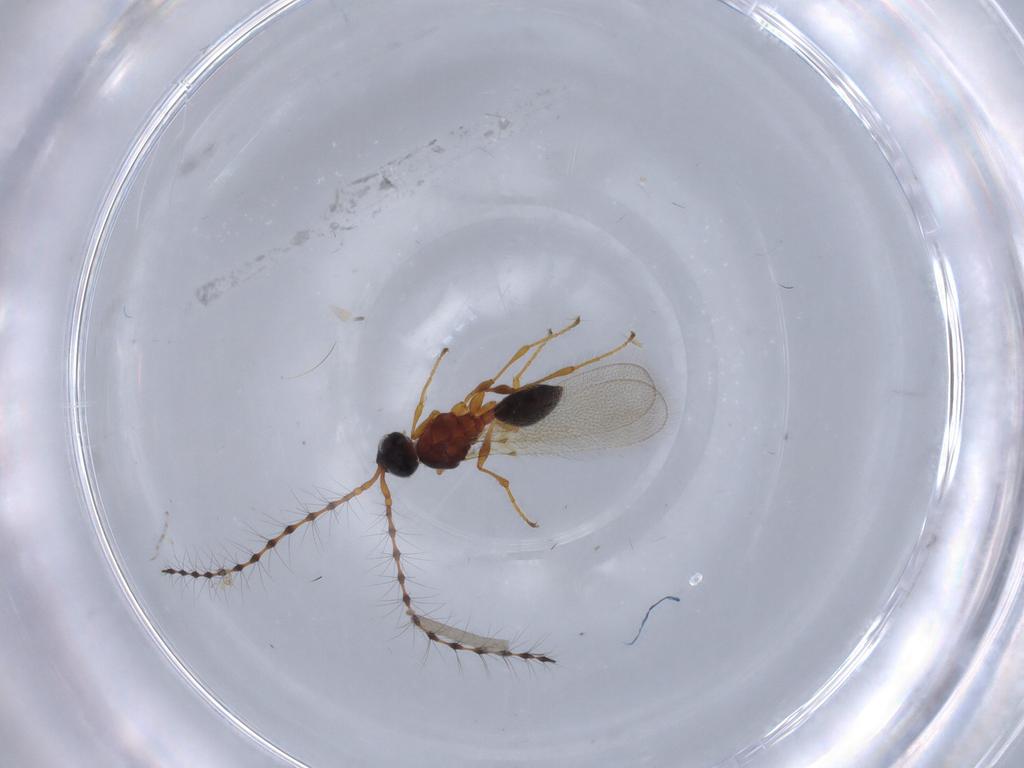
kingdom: Animalia
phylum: Arthropoda
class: Insecta
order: Hymenoptera
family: Diapriidae
